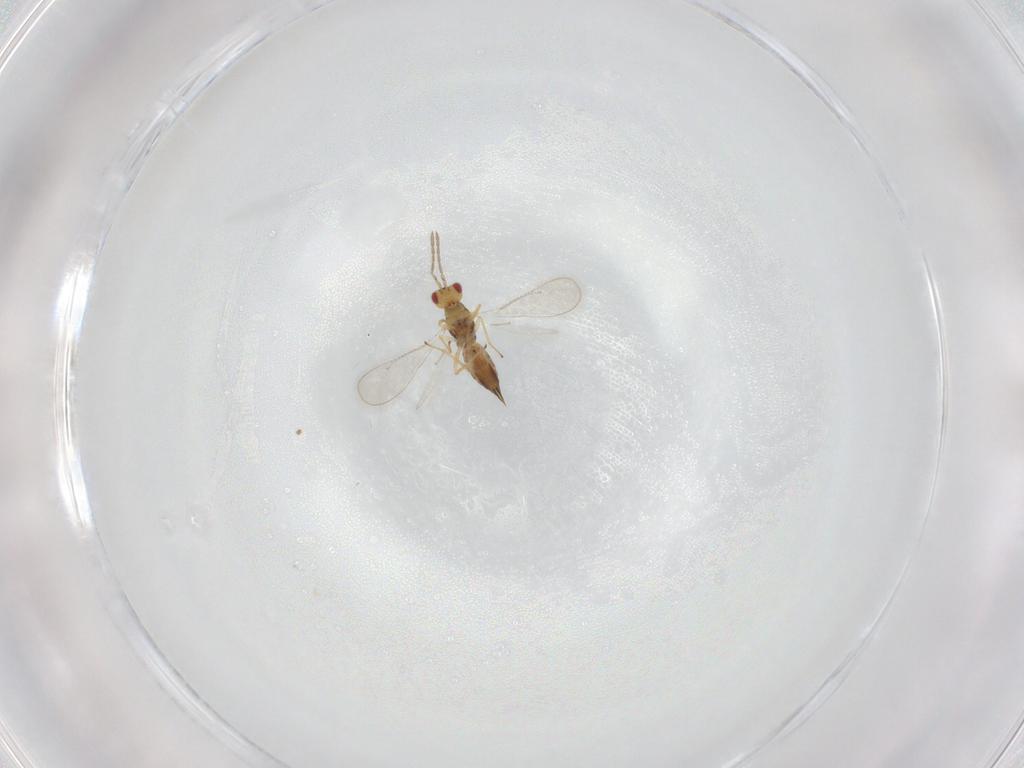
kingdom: Animalia
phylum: Arthropoda
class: Insecta
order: Hymenoptera
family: Eulophidae
